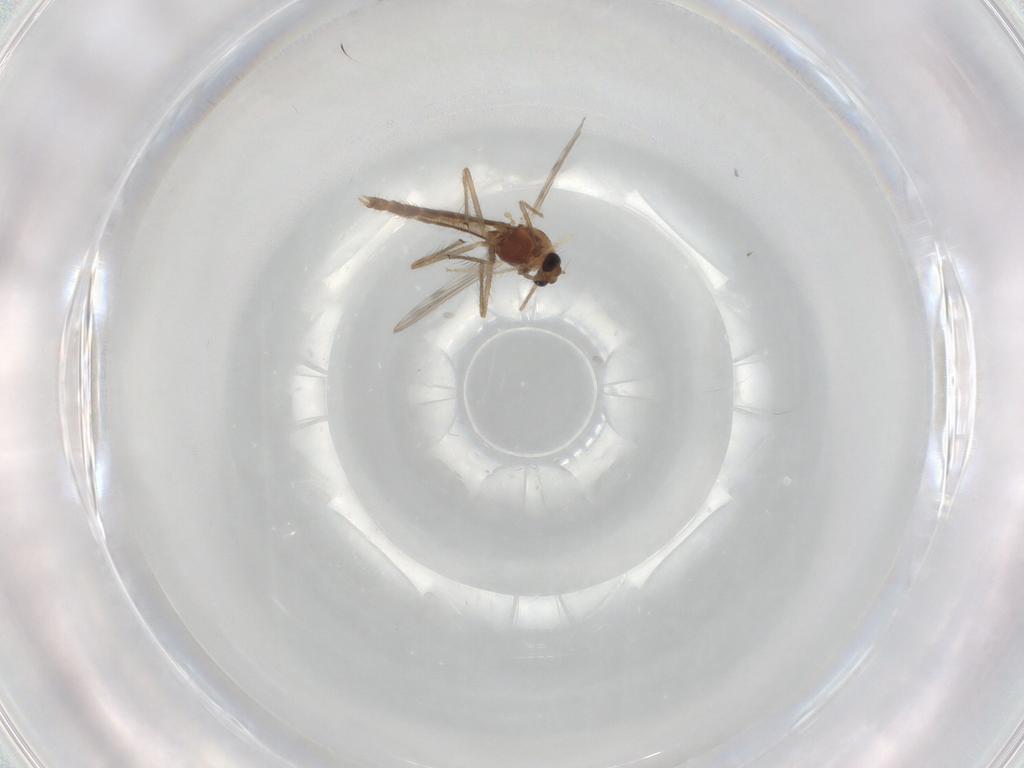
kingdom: Animalia
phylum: Arthropoda
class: Insecta
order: Diptera
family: Chironomidae
